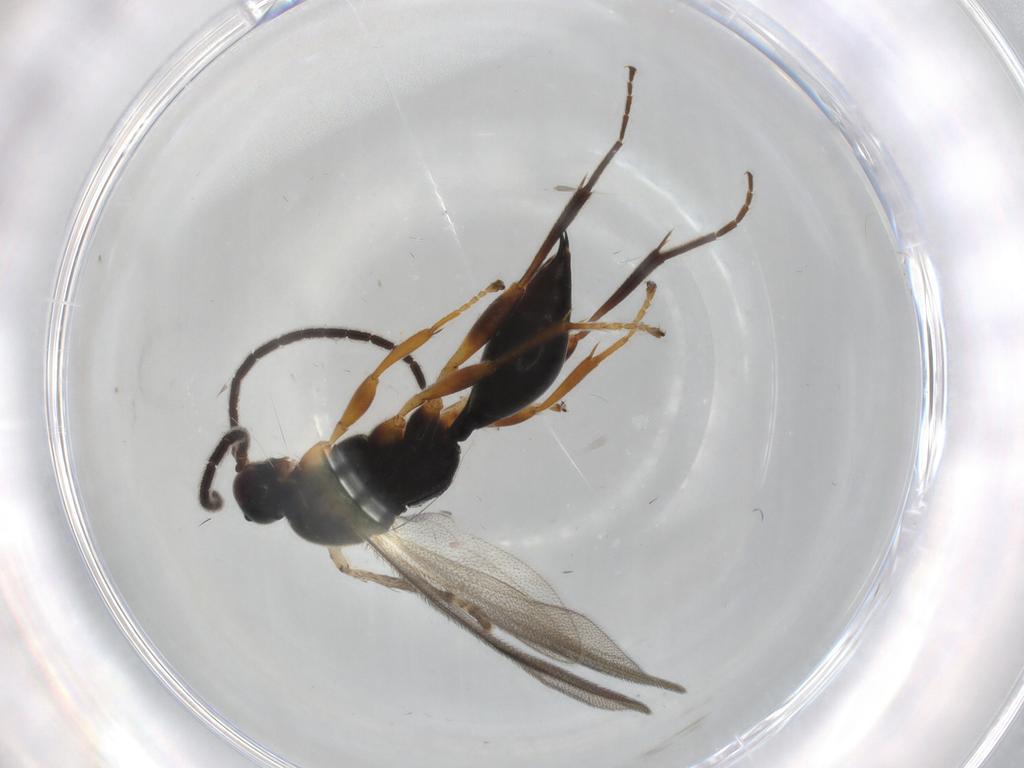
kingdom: Animalia
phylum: Arthropoda
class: Insecta
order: Hymenoptera
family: Proctotrupidae
